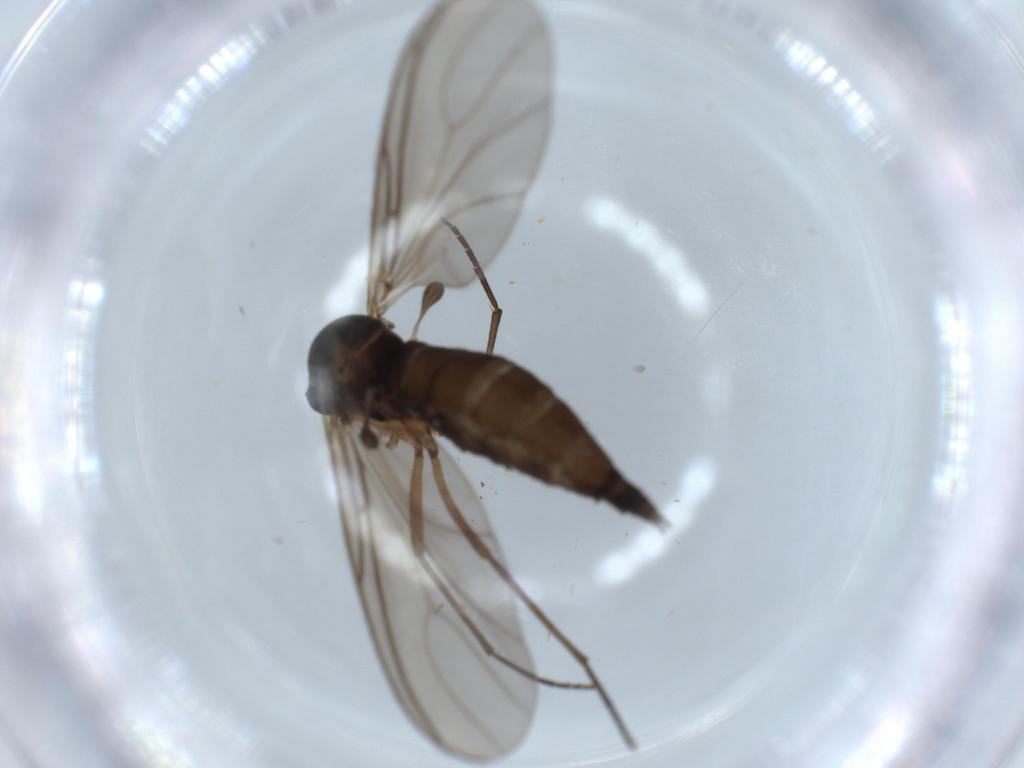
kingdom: Animalia
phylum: Arthropoda
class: Insecta
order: Diptera
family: Sciaridae
